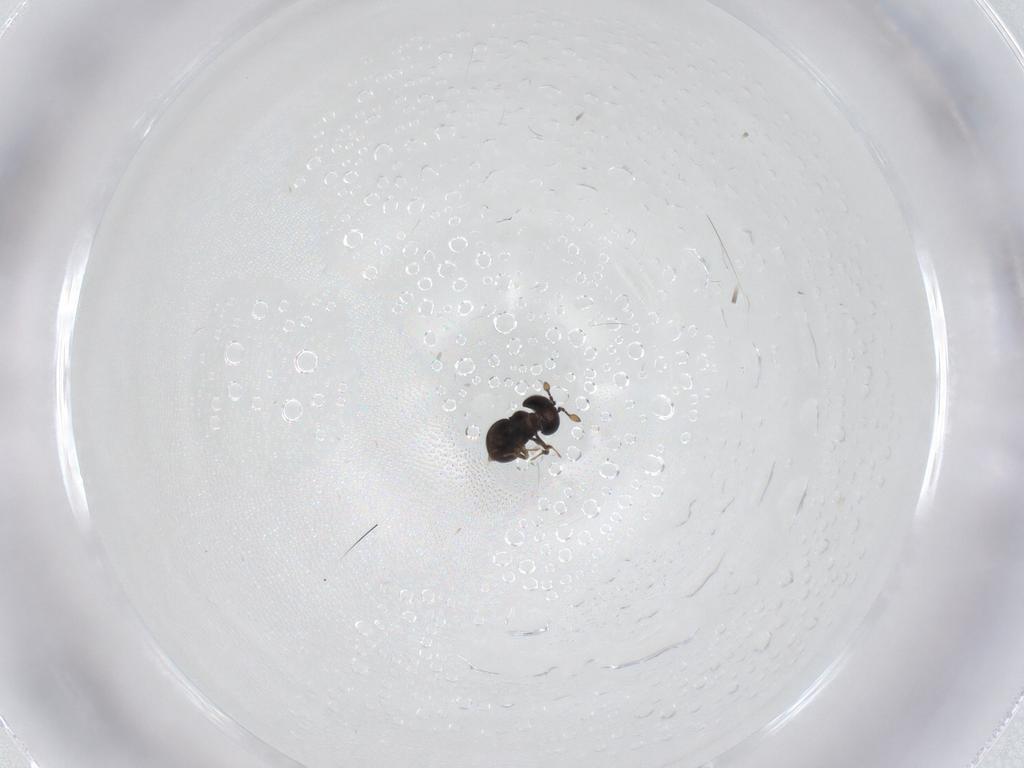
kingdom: Animalia
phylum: Arthropoda
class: Insecta
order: Hymenoptera
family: Scelionidae
